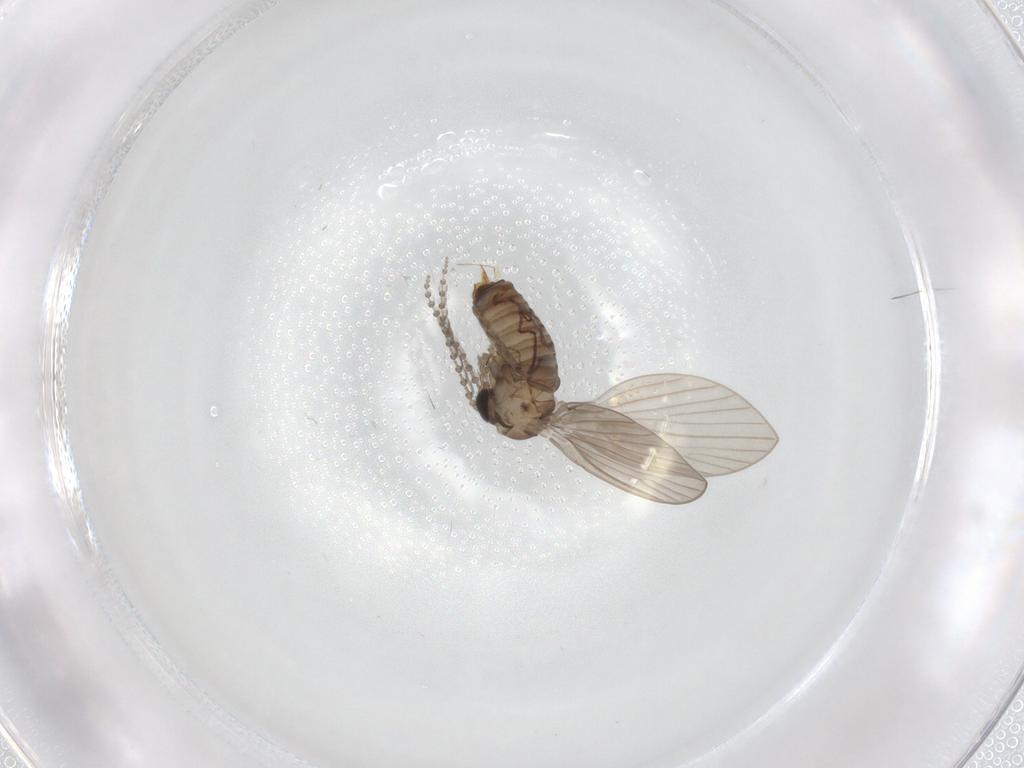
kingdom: Animalia
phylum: Arthropoda
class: Insecta
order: Diptera
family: Psychodidae
